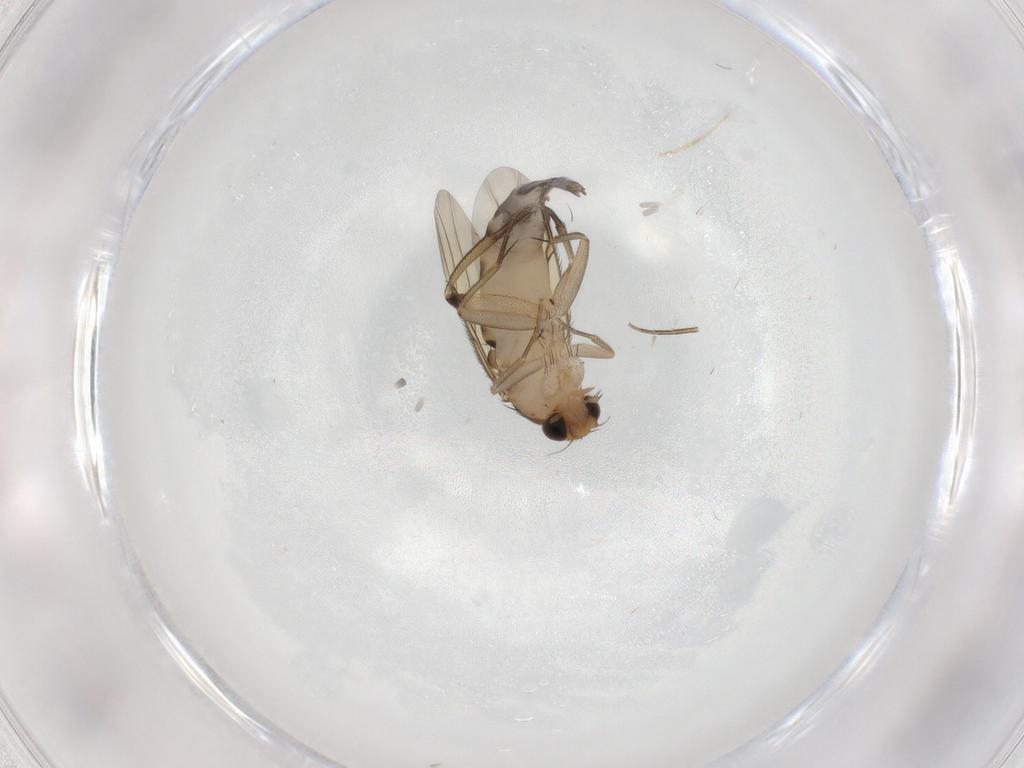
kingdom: Animalia
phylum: Arthropoda
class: Insecta
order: Diptera
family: Phoridae
